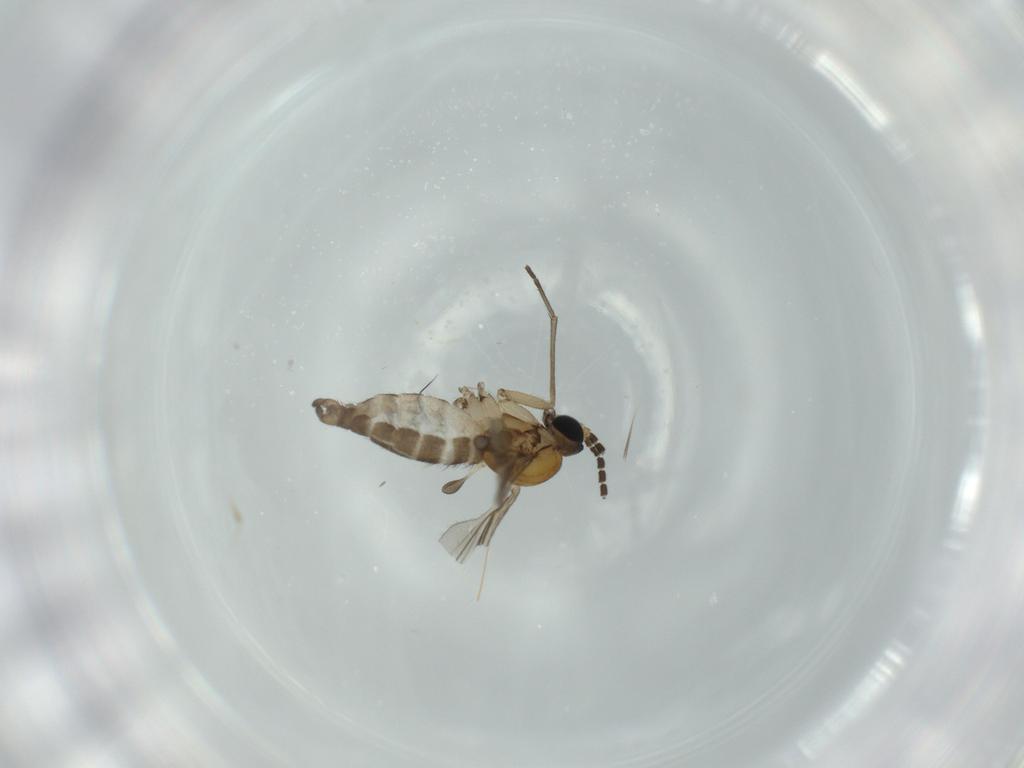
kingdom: Animalia
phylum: Arthropoda
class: Insecta
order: Diptera
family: Sciaridae
